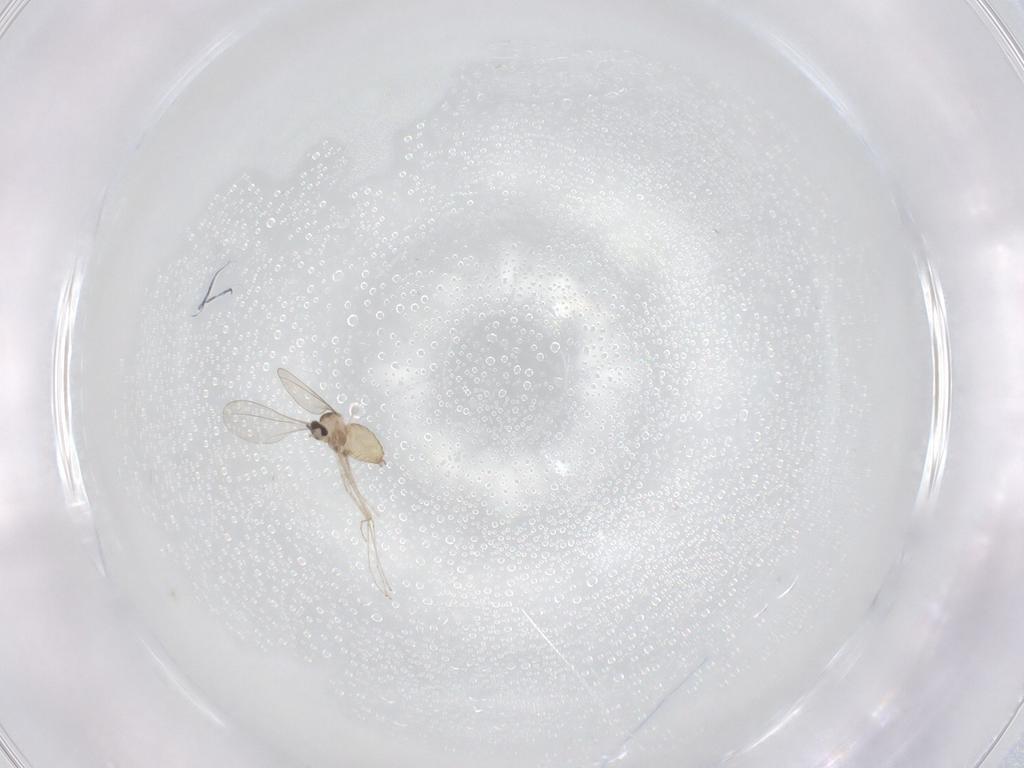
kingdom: Animalia
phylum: Arthropoda
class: Insecta
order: Diptera
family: Cecidomyiidae
